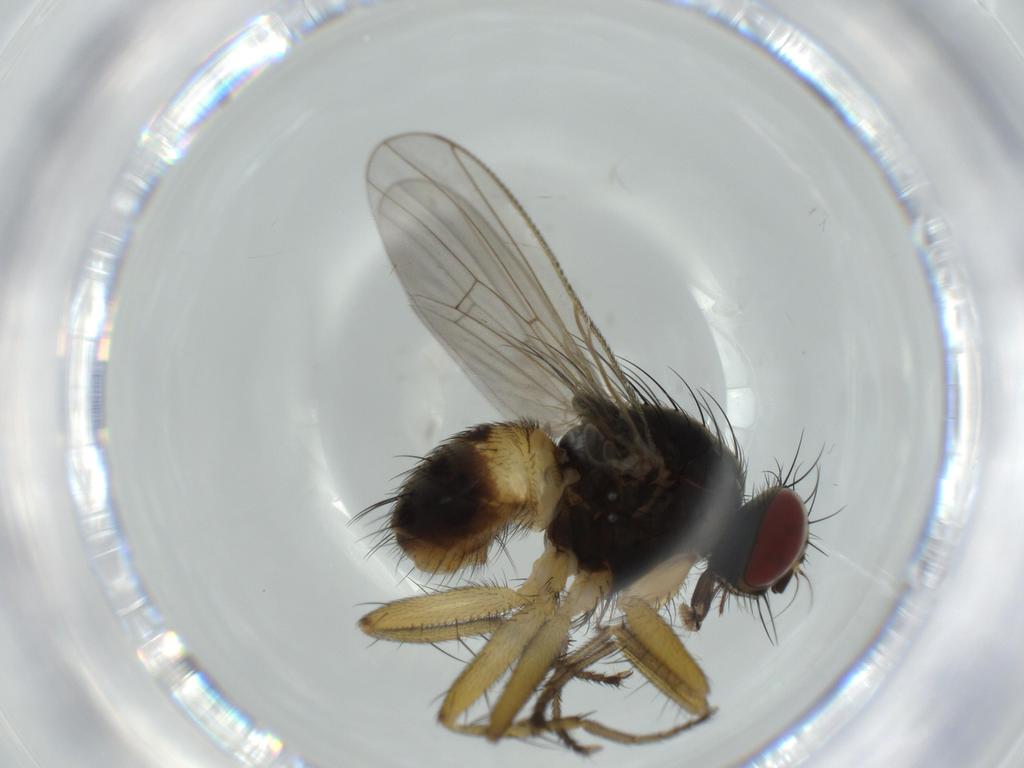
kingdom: Animalia
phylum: Arthropoda
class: Insecta
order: Diptera
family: Muscidae
